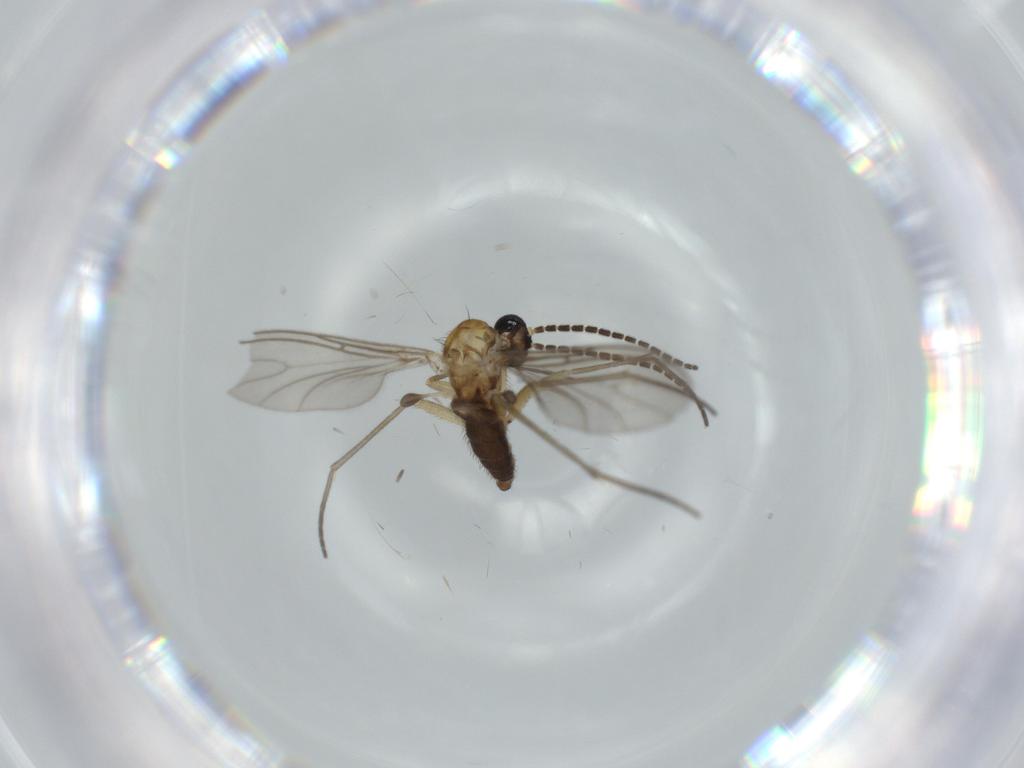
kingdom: Animalia
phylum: Arthropoda
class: Insecta
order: Diptera
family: Sciaridae
